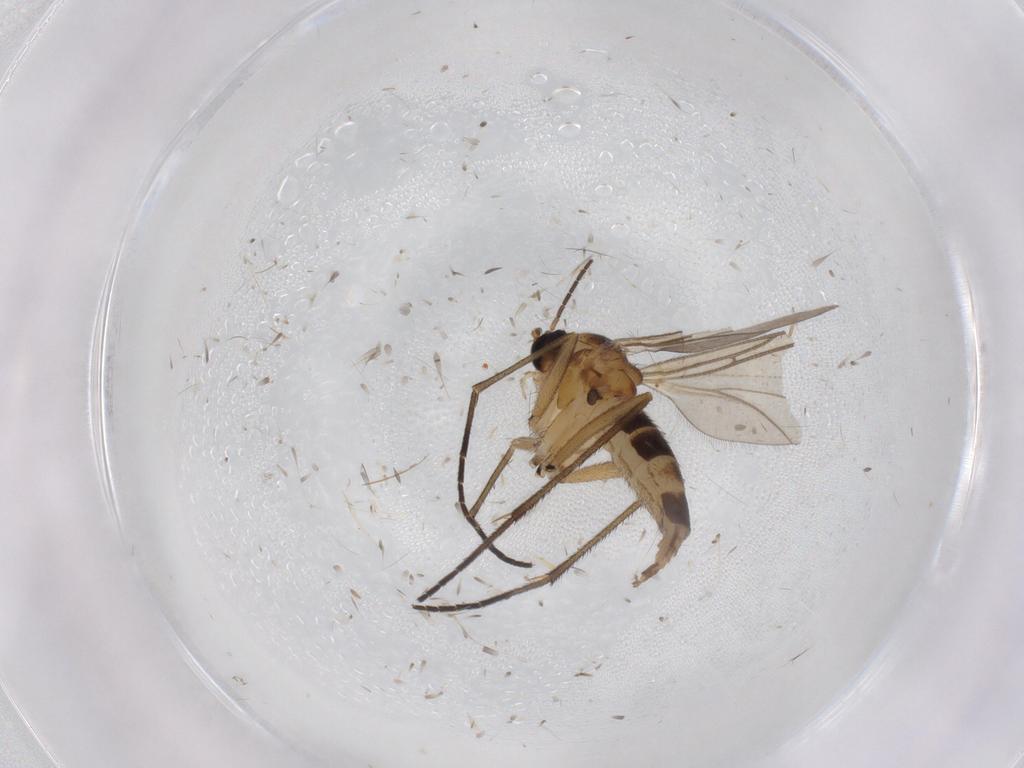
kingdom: Animalia
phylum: Arthropoda
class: Insecta
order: Diptera
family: Sciaridae
